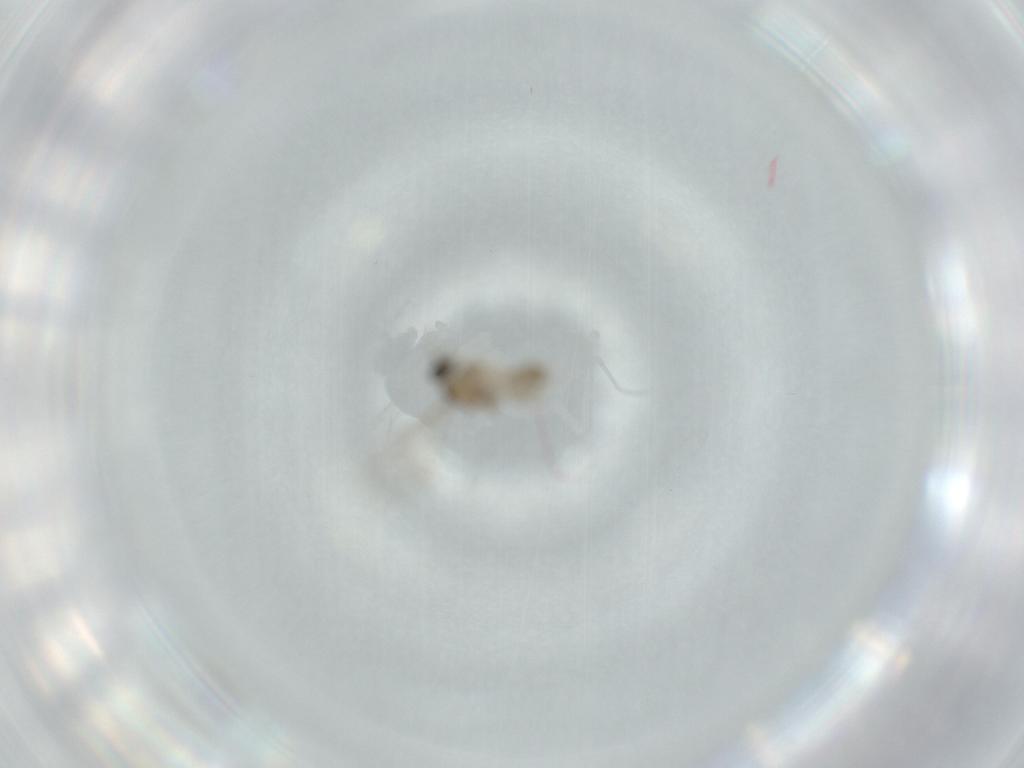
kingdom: Animalia
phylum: Arthropoda
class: Insecta
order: Diptera
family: Cecidomyiidae
